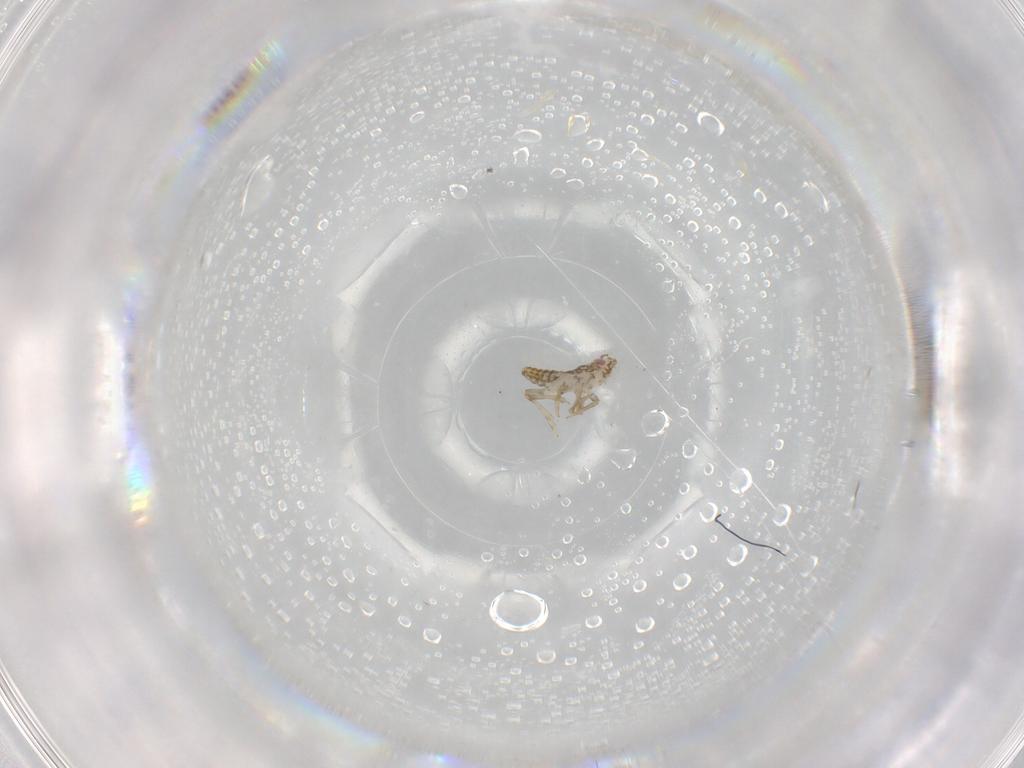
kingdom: Animalia
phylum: Arthropoda
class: Insecta
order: Hemiptera
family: Delphacidae
